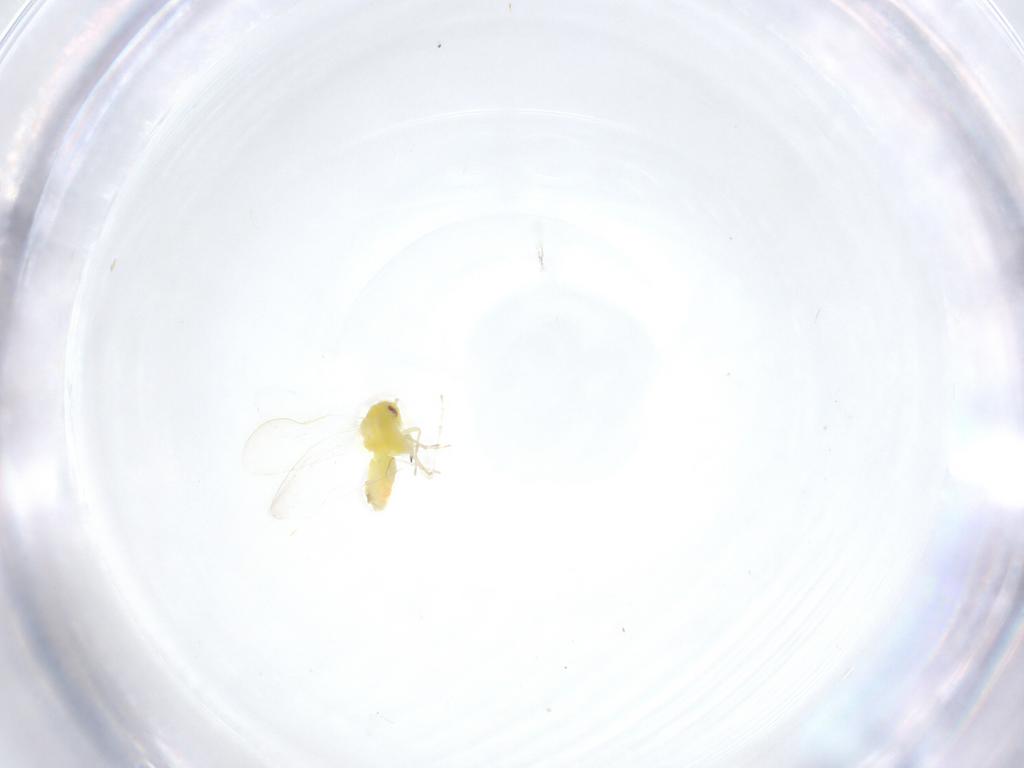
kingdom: Animalia
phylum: Arthropoda
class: Insecta
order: Hemiptera
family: Aleyrodidae
